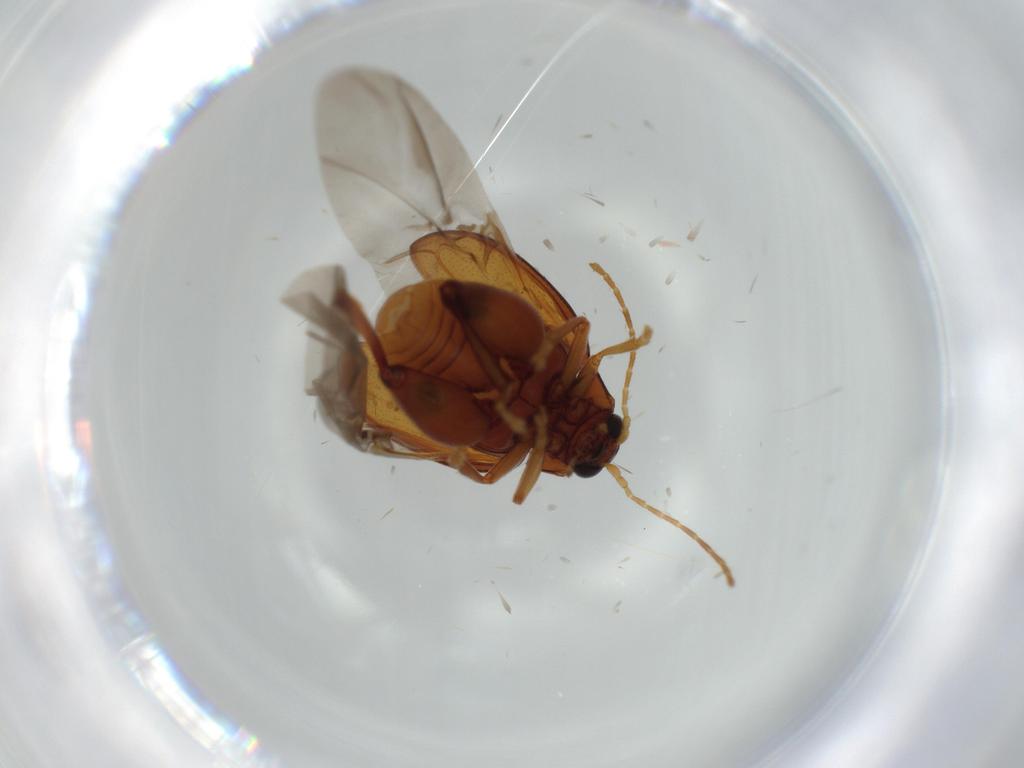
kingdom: Animalia
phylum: Arthropoda
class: Insecta
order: Coleoptera
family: Chrysomelidae
